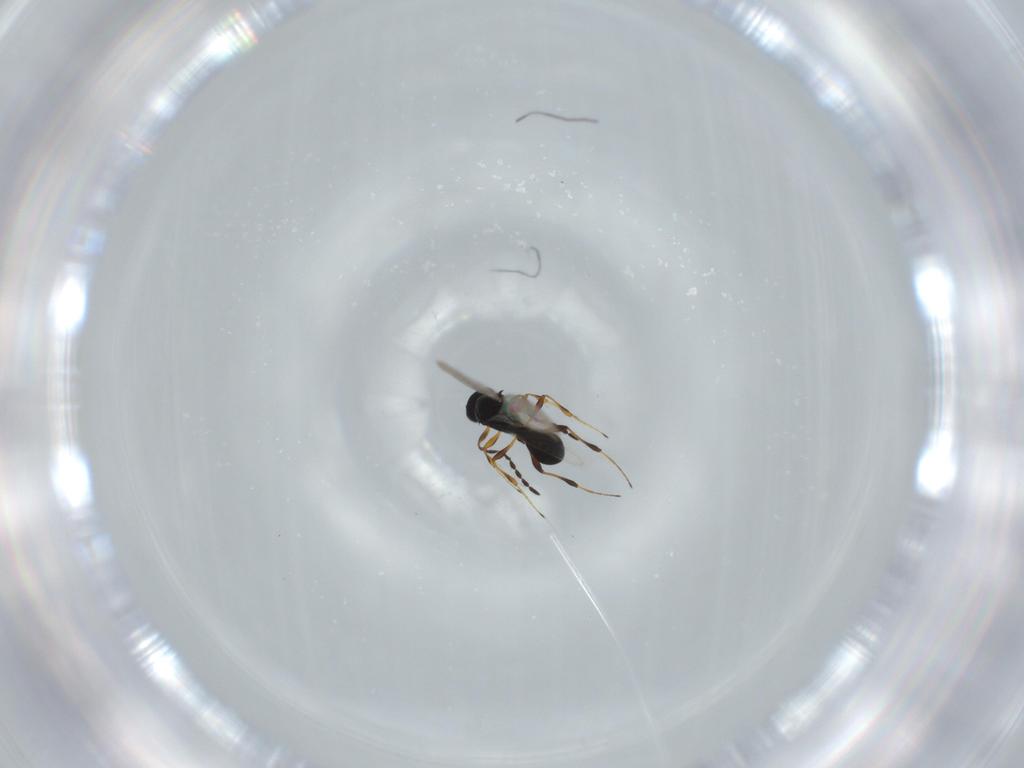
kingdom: Animalia
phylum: Arthropoda
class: Insecta
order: Hymenoptera
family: Platygastridae
